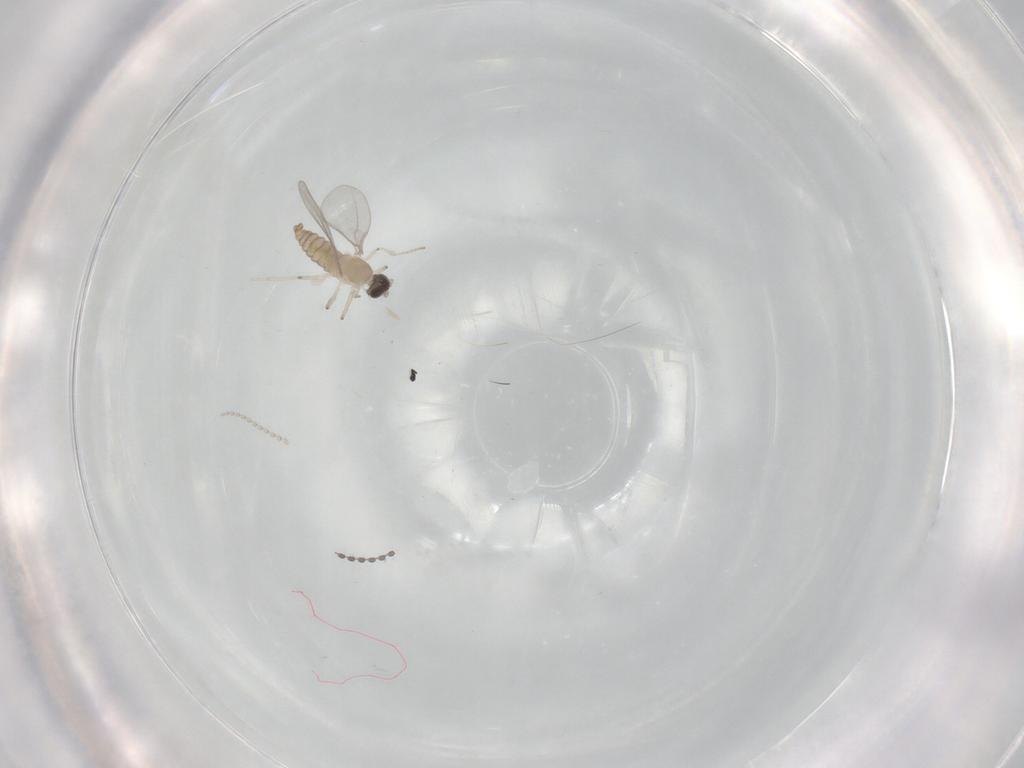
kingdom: Animalia
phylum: Arthropoda
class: Insecta
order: Diptera
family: Cecidomyiidae
